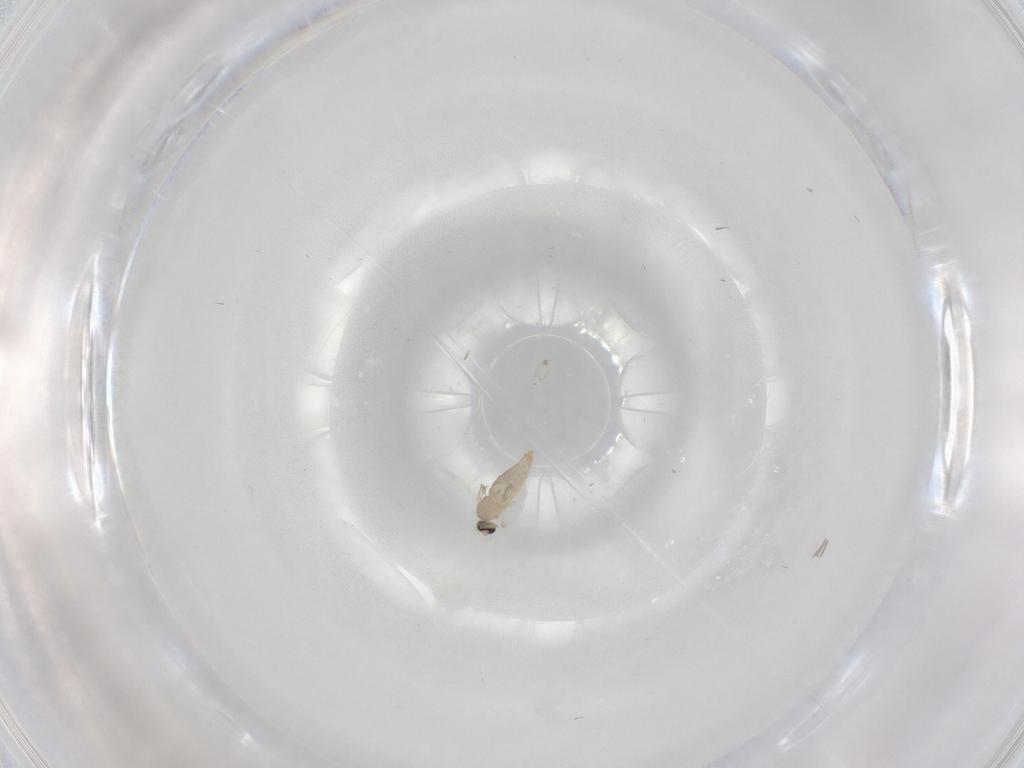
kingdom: Animalia
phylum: Arthropoda
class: Insecta
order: Diptera
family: Cecidomyiidae
